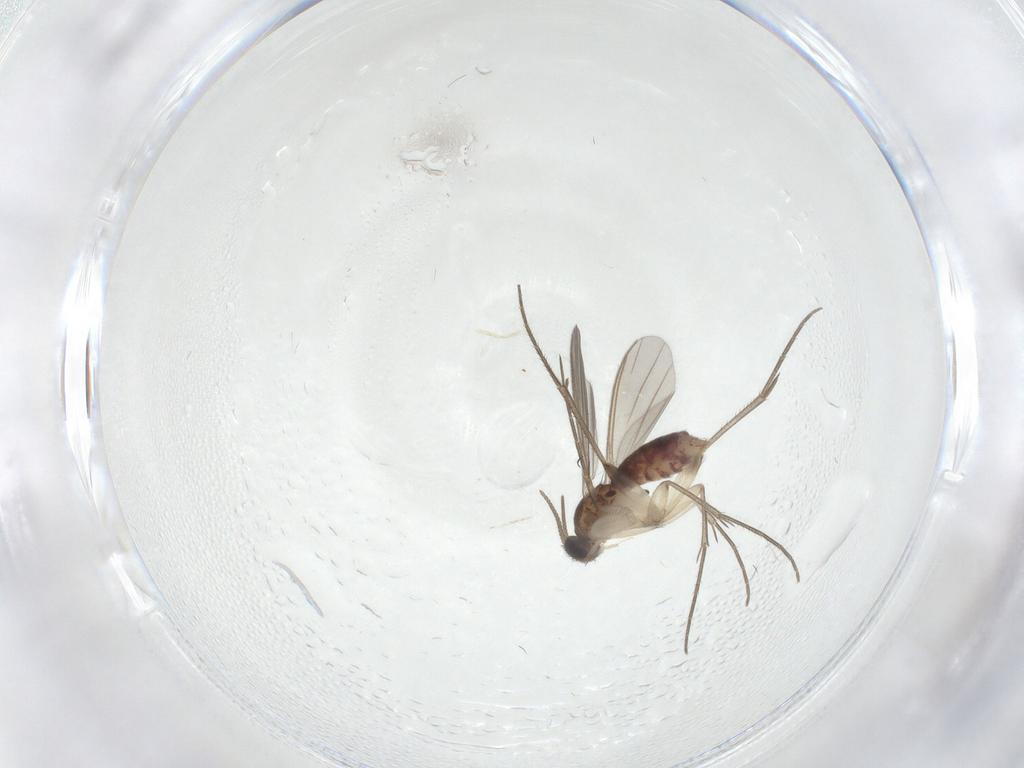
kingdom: Animalia
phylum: Arthropoda
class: Insecta
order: Diptera
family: Mycetophilidae
